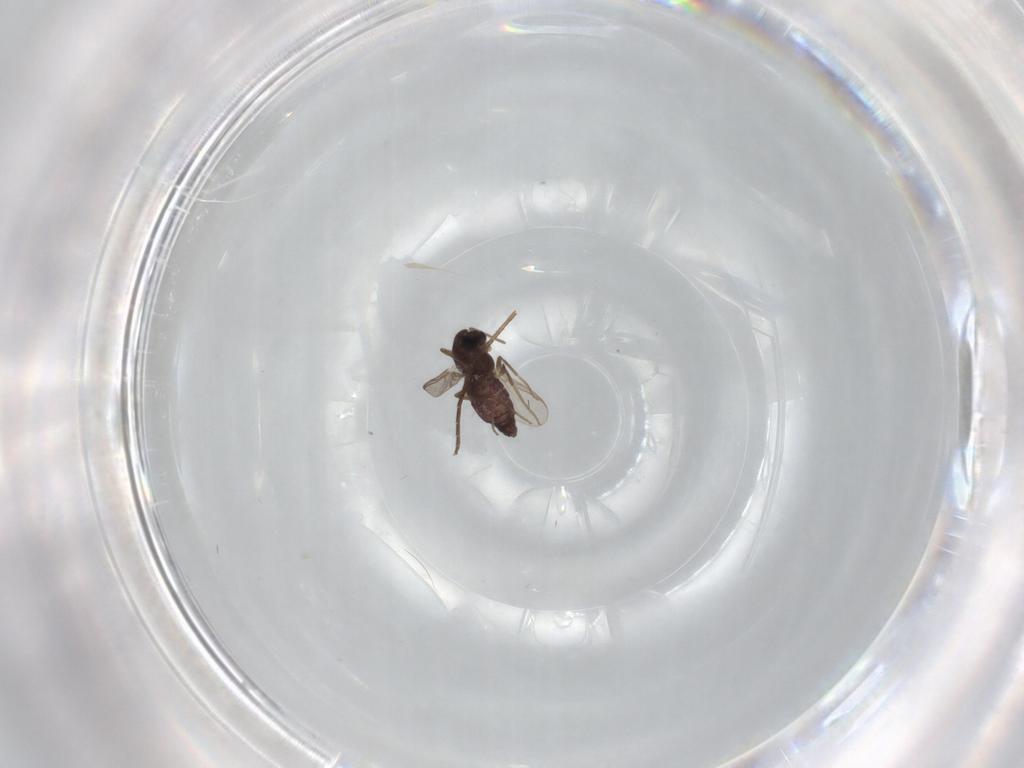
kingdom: Animalia
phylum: Arthropoda
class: Insecta
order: Diptera
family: Chironomidae
